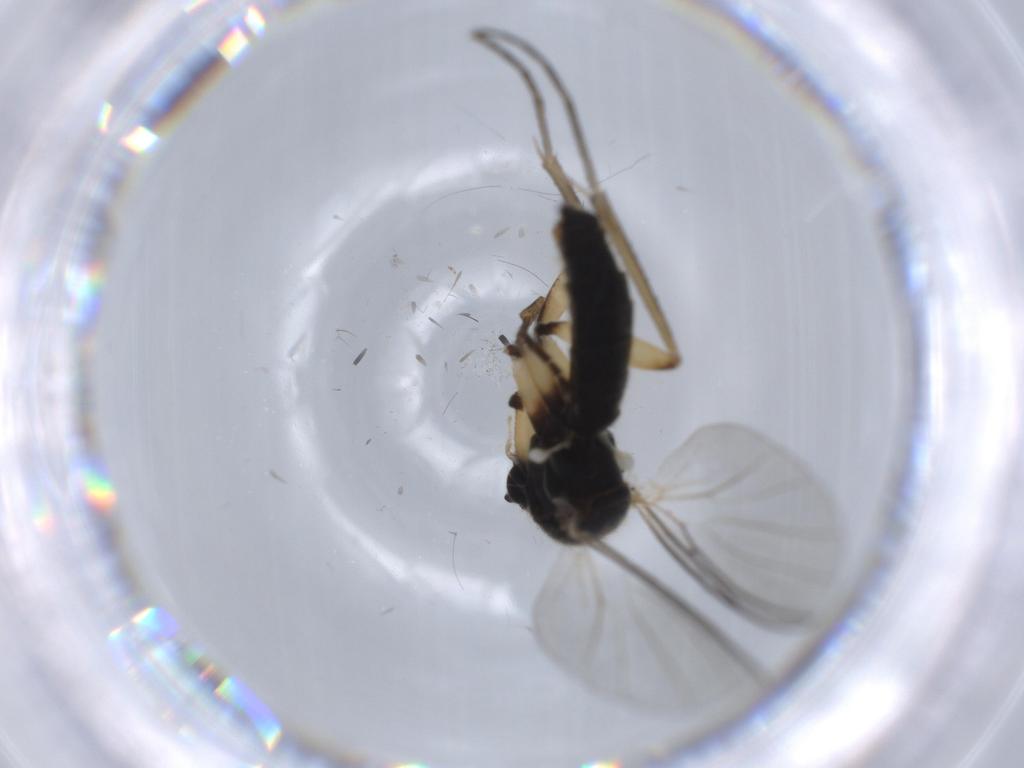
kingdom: Animalia
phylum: Arthropoda
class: Insecta
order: Diptera
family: Mycetophilidae
